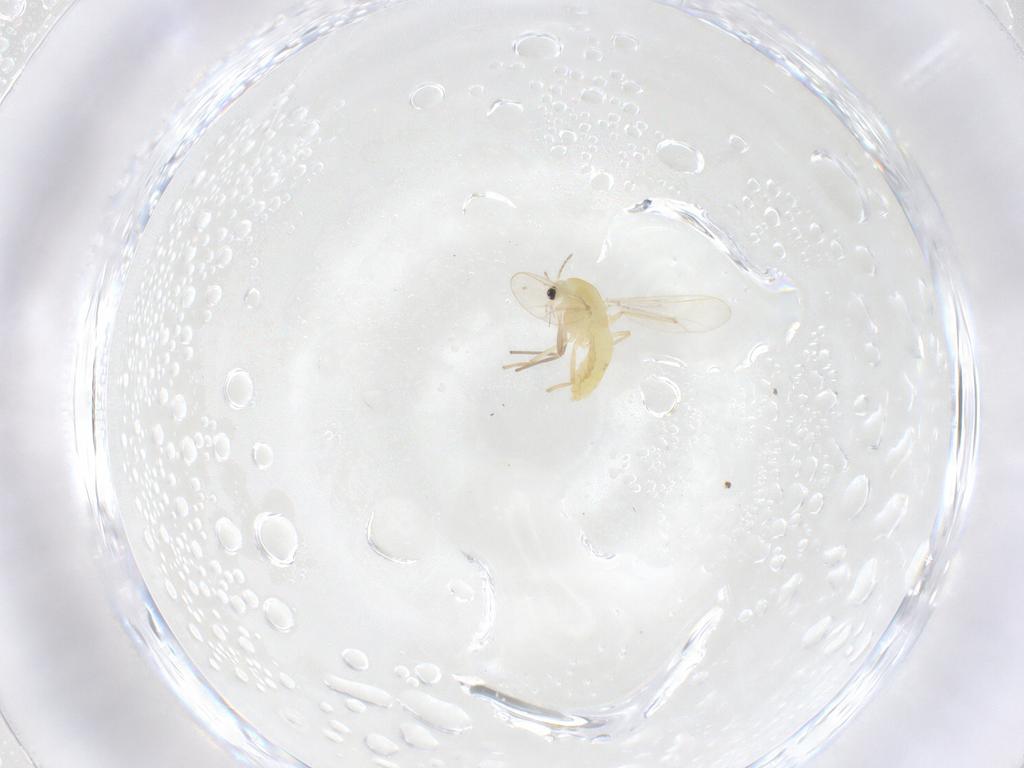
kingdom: Animalia
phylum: Arthropoda
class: Insecta
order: Diptera
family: Chironomidae
